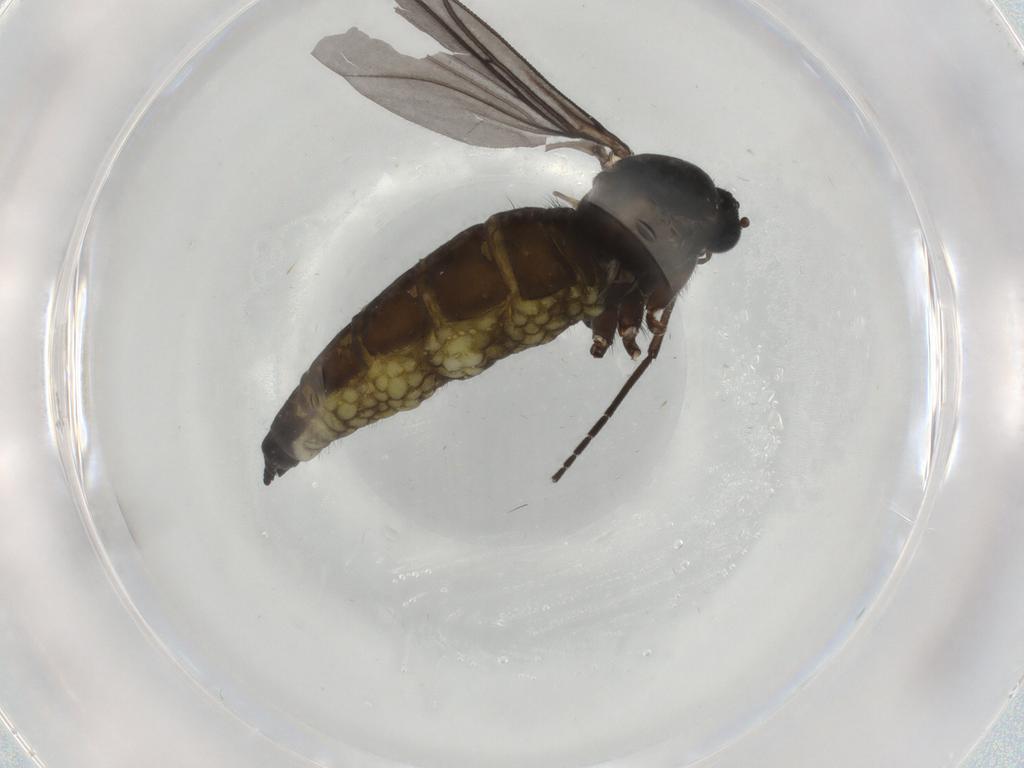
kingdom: Animalia
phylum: Arthropoda
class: Insecta
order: Diptera
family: Sciaridae
